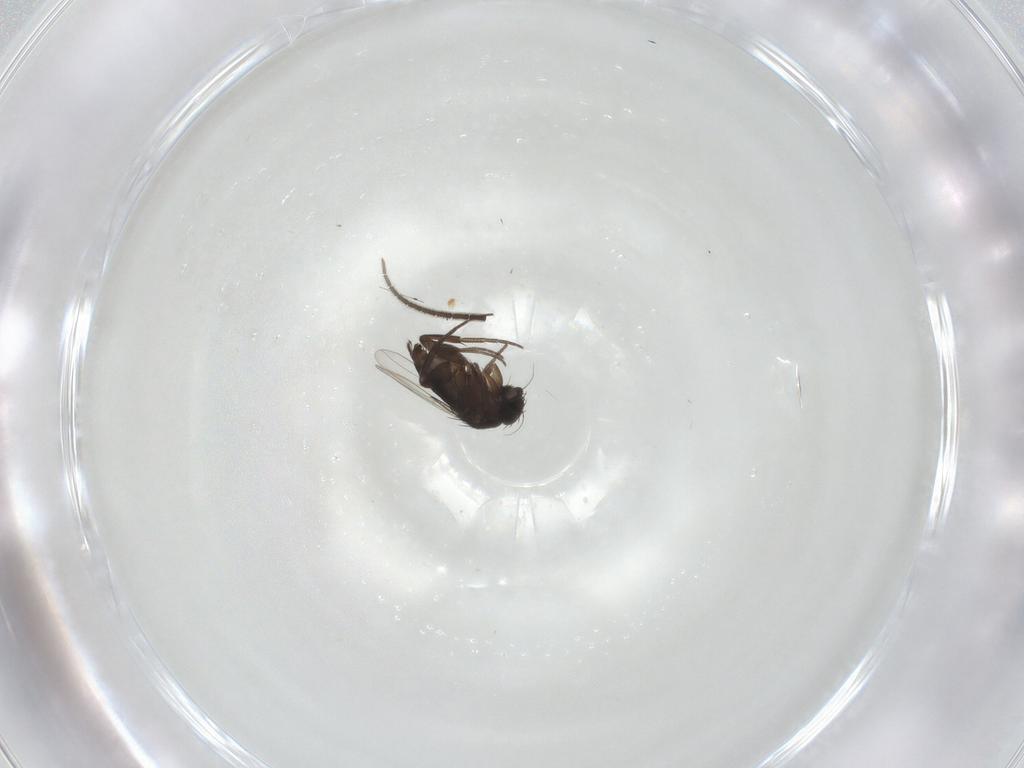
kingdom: Animalia
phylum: Arthropoda
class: Insecta
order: Diptera
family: Phoridae
